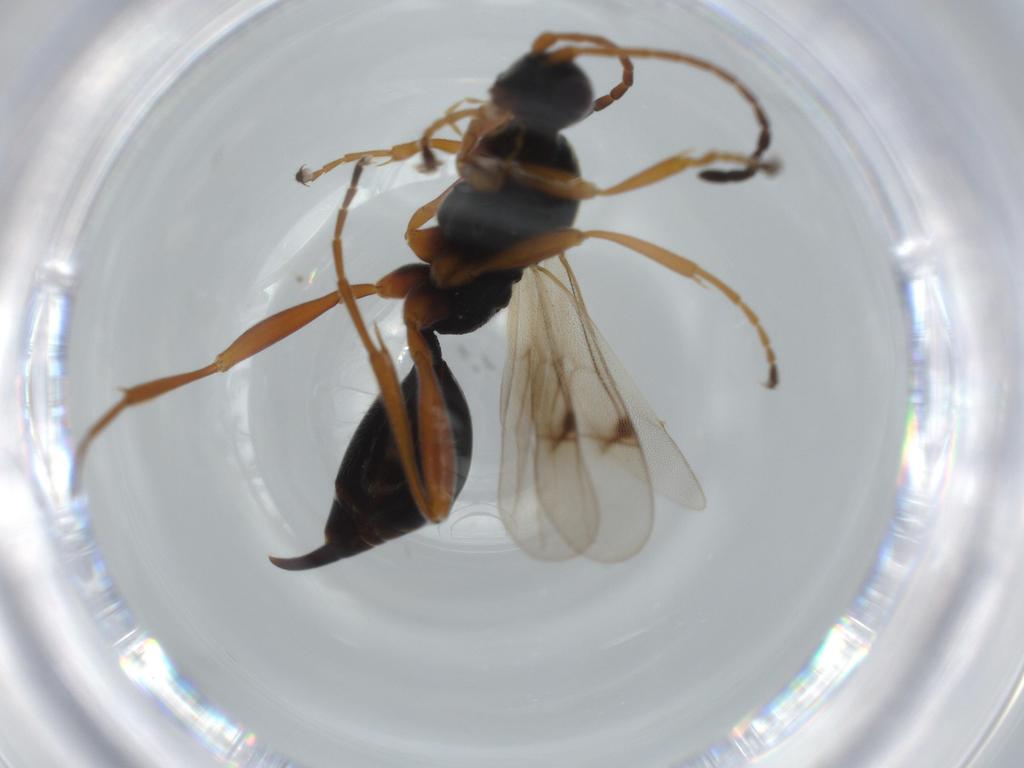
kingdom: Animalia
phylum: Arthropoda
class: Insecta
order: Hymenoptera
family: Proctotrupidae
